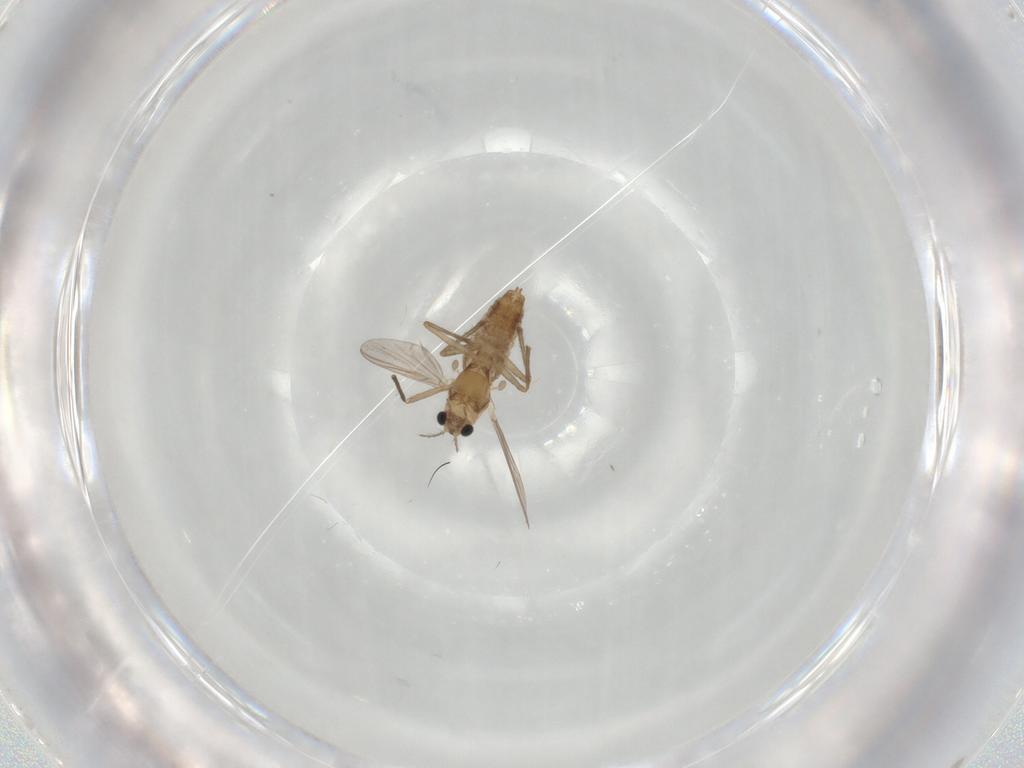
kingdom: Animalia
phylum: Arthropoda
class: Insecta
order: Diptera
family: Chironomidae
